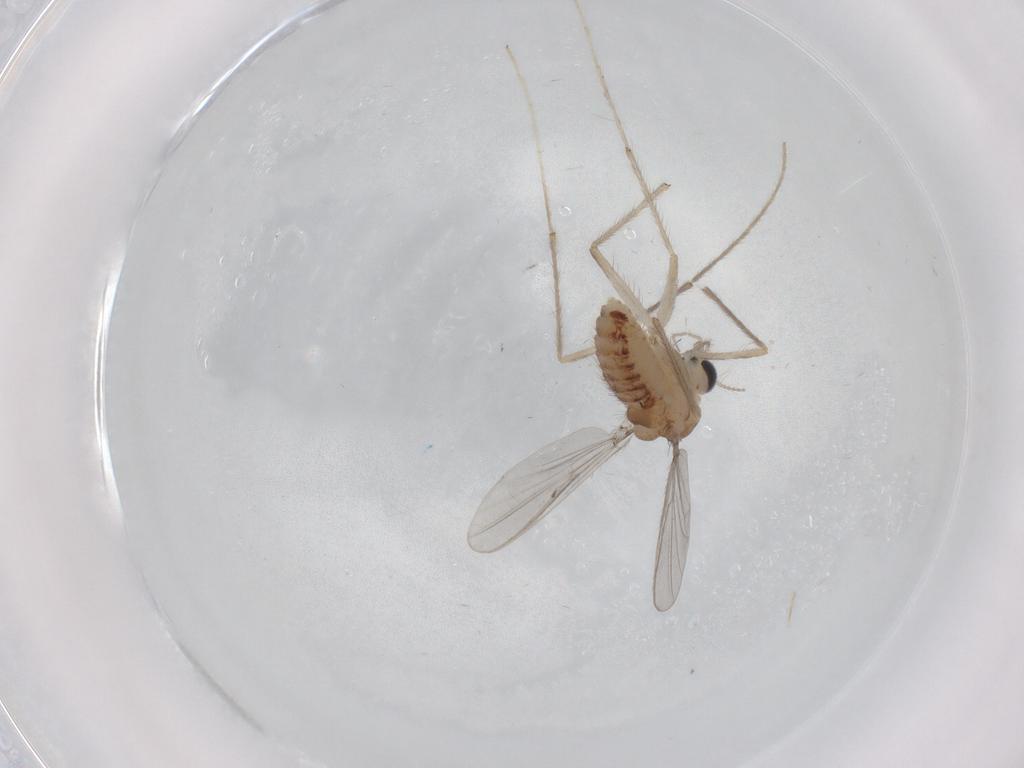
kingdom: Animalia
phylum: Arthropoda
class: Insecta
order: Diptera
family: Chironomidae
